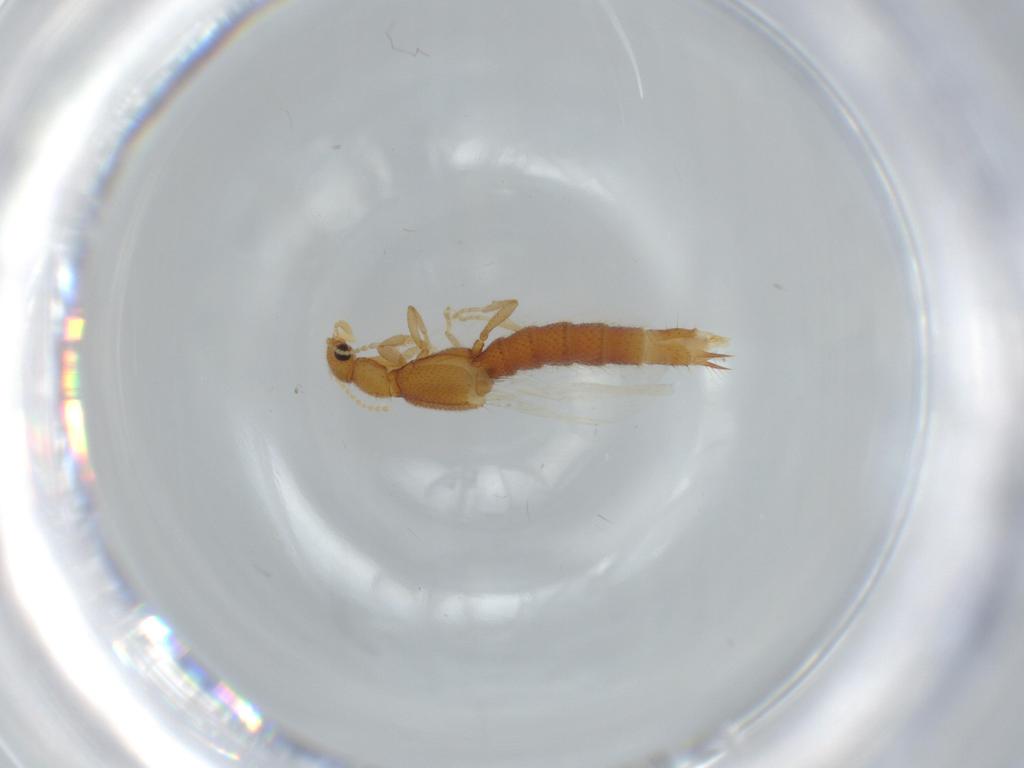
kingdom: Animalia
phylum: Arthropoda
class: Insecta
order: Coleoptera
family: Staphylinidae
